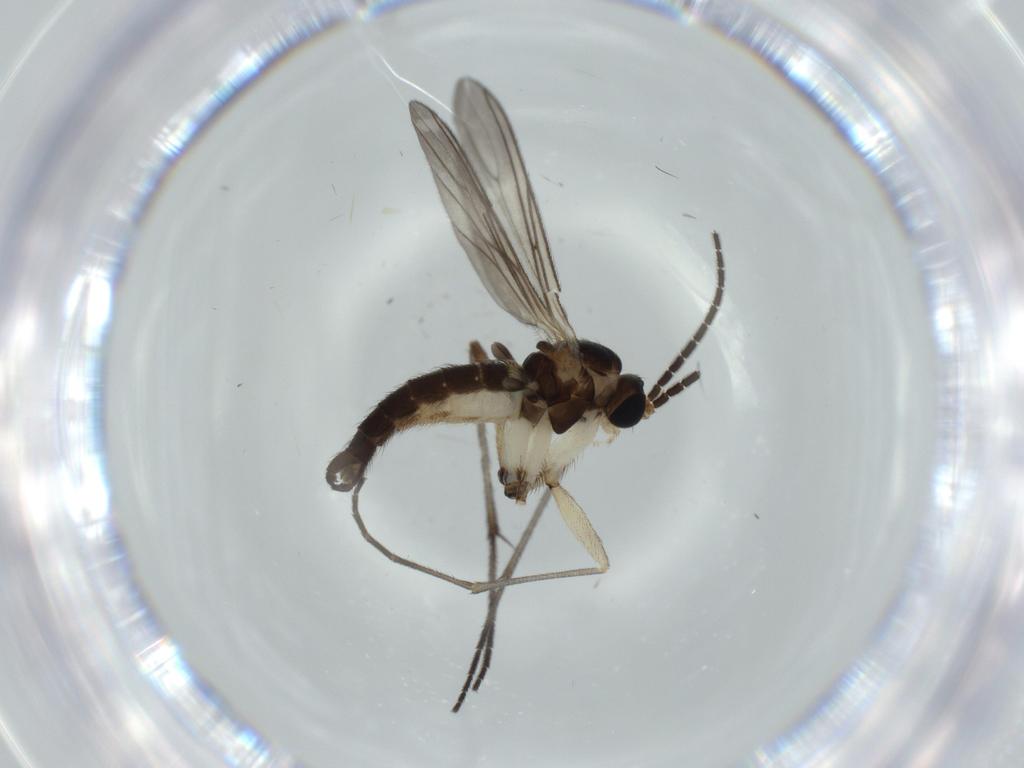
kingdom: Animalia
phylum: Arthropoda
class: Insecta
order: Diptera
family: Sciaridae
